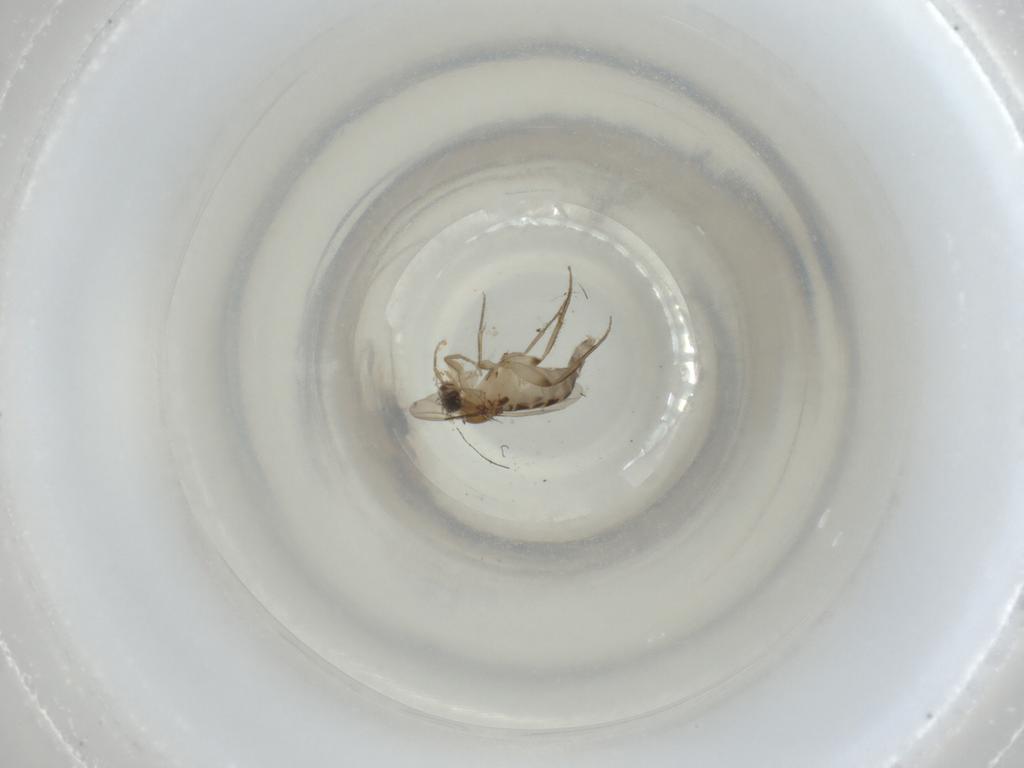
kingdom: Animalia
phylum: Arthropoda
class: Insecta
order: Diptera
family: Phoridae
